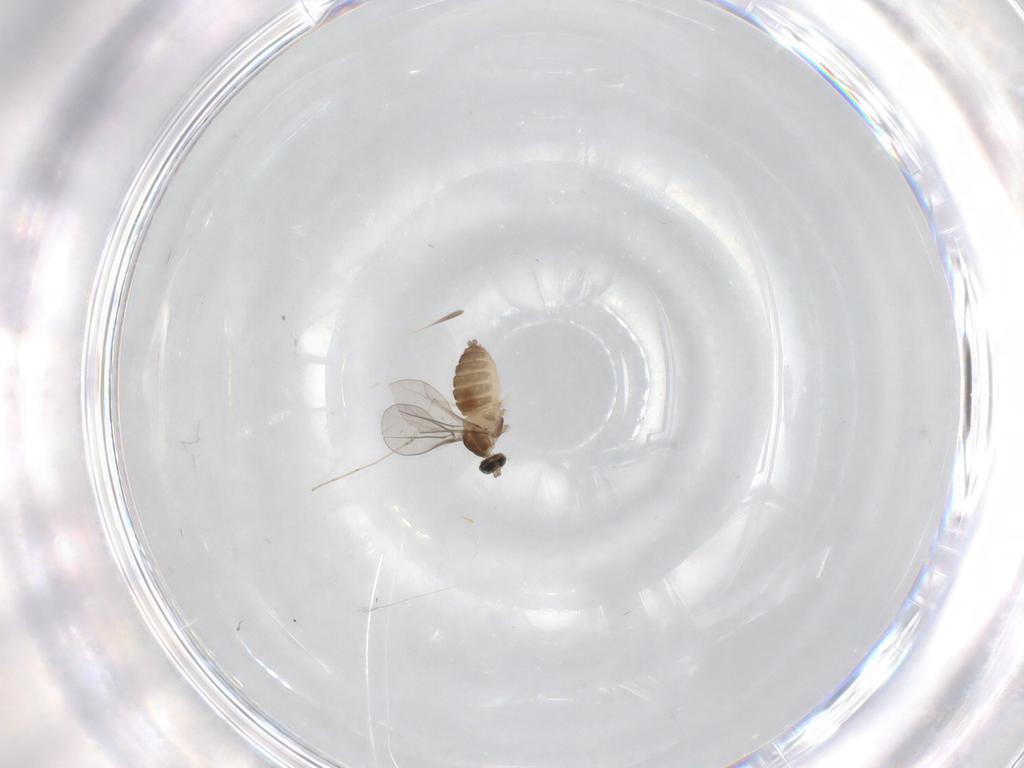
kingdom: Animalia
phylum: Arthropoda
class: Insecta
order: Diptera
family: Cecidomyiidae
